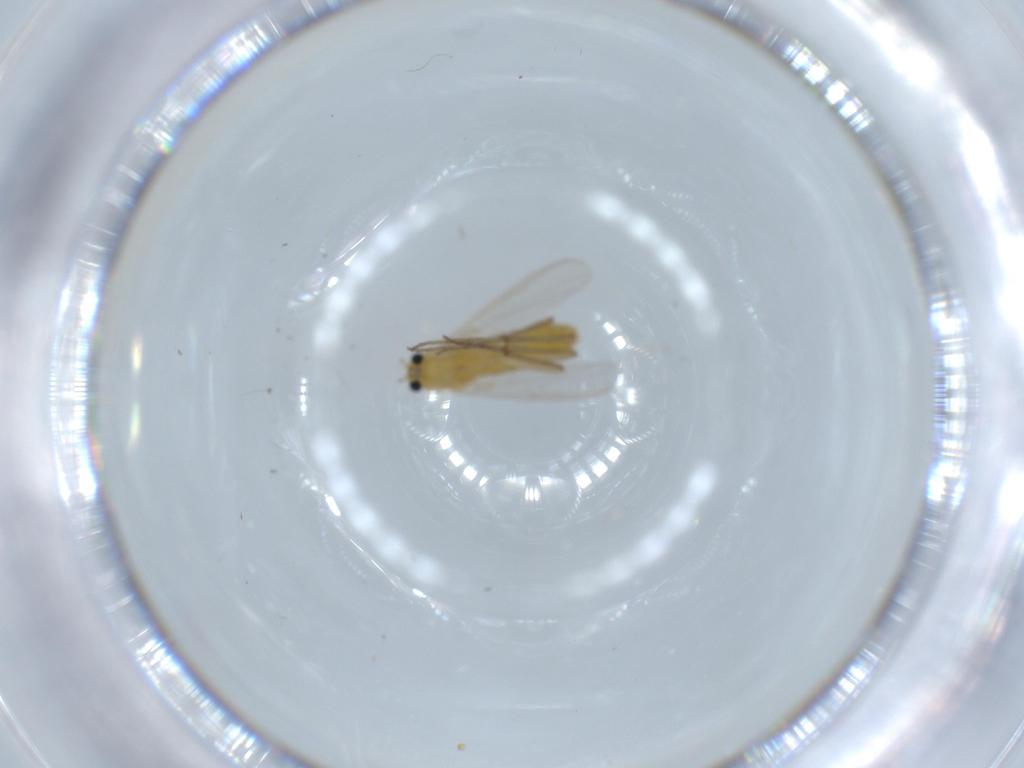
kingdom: Animalia
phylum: Arthropoda
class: Insecta
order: Diptera
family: Chironomidae
